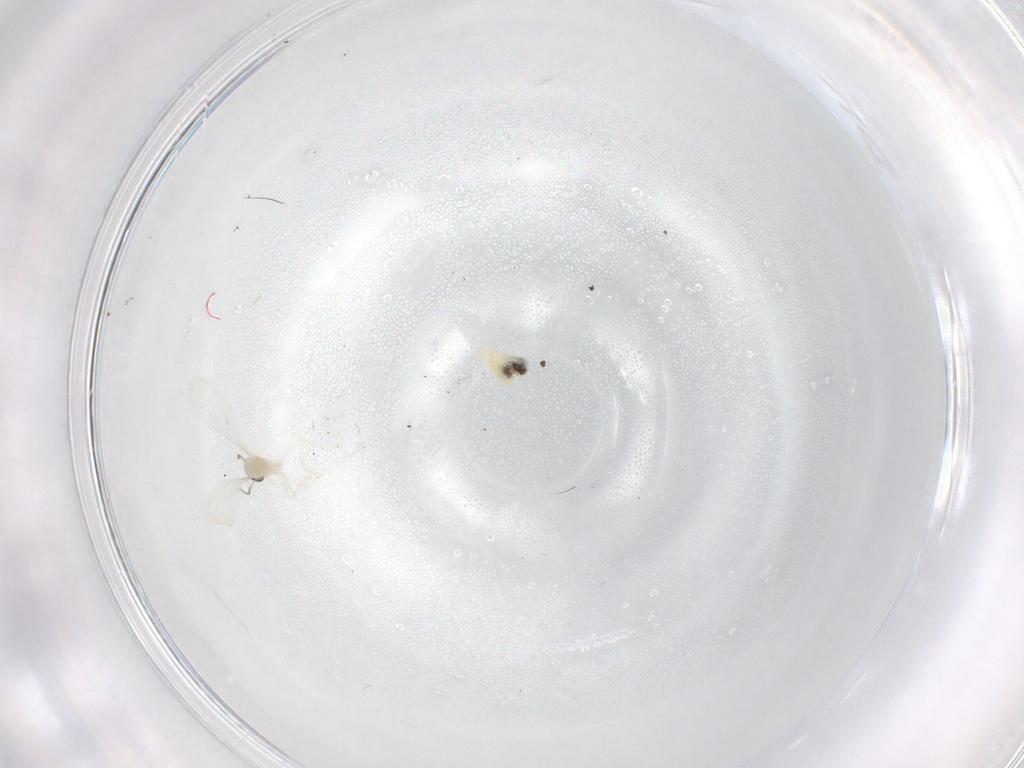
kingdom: Animalia
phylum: Arthropoda
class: Insecta
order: Diptera
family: Cecidomyiidae
